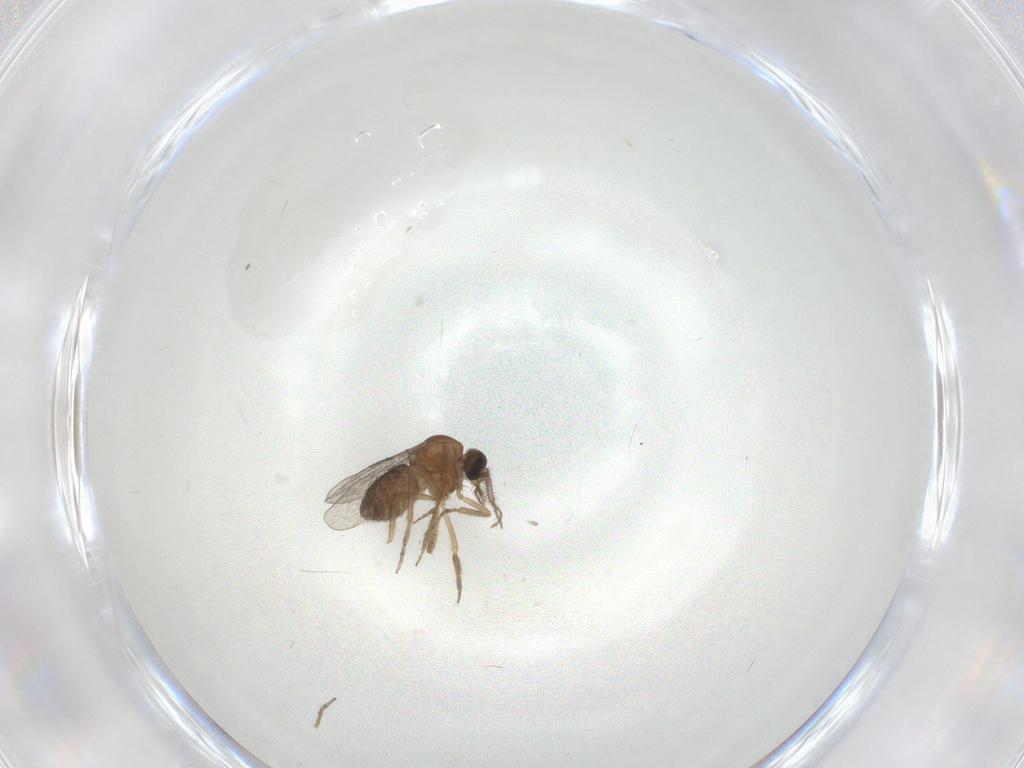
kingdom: Animalia
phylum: Arthropoda
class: Insecta
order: Diptera
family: Ceratopogonidae
